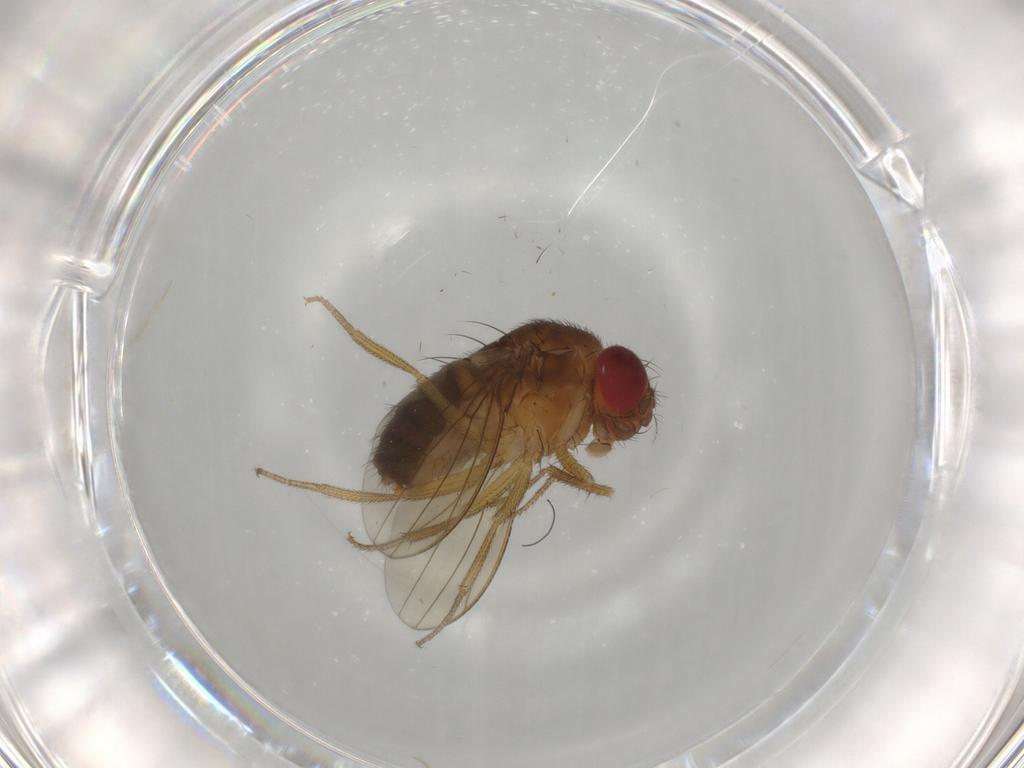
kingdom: Animalia
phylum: Arthropoda
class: Insecta
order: Diptera
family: Drosophilidae
